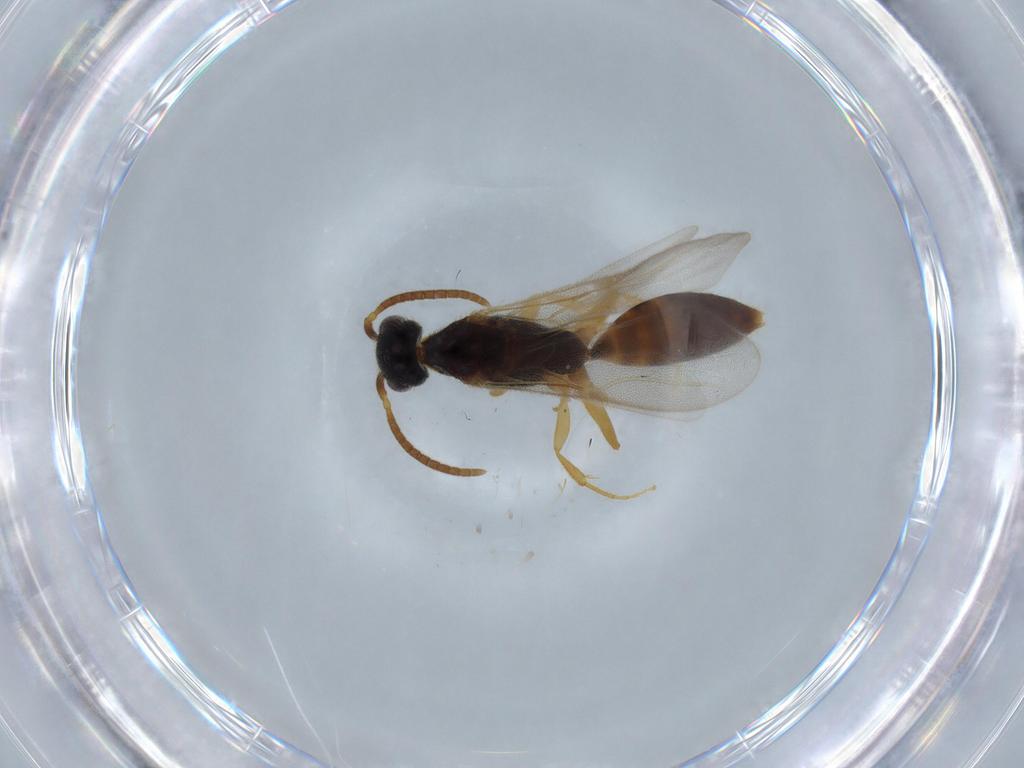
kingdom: Animalia
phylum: Arthropoda
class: Insecta
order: Hymenoptera
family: Bethylidae
